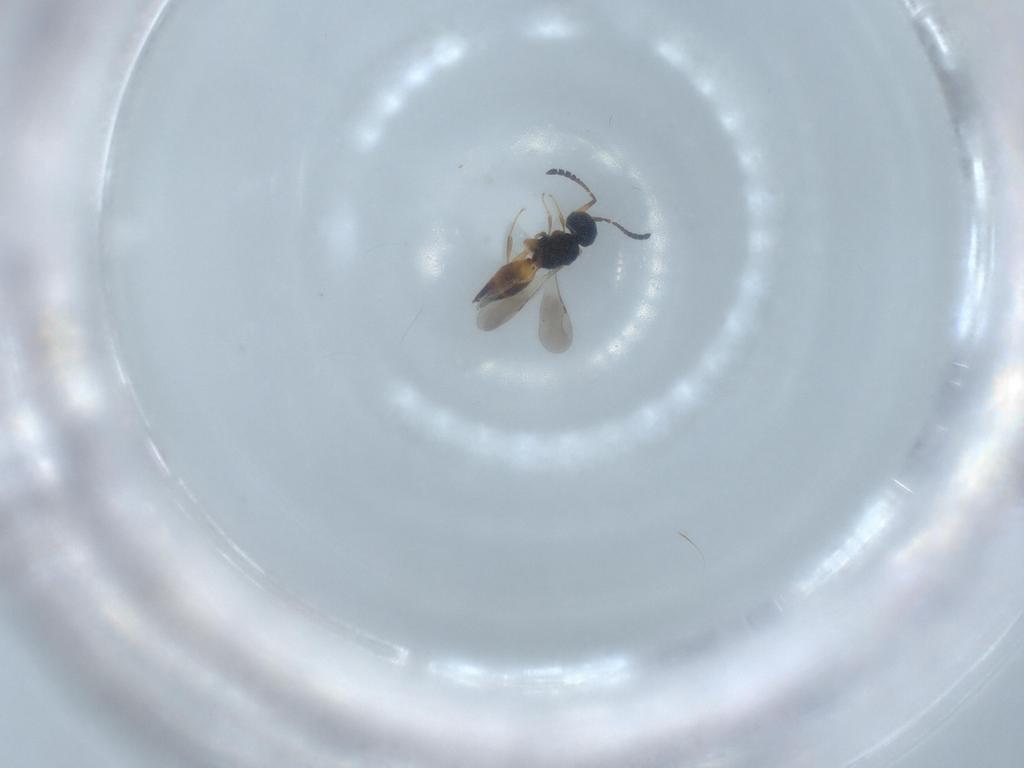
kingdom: Animalia
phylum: Arthropoda
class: Insecta
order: Hymenoptera
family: Ceraphronidae
